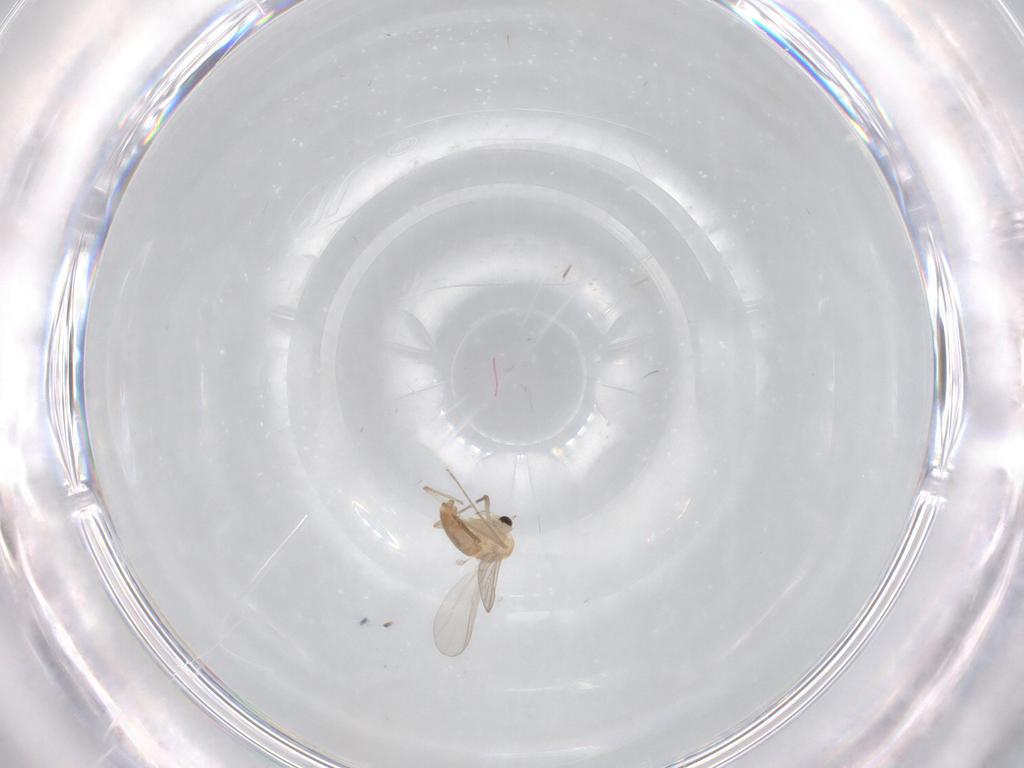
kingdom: Animalia
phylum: Arthropoda
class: Insecta
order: Diptera
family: Chironomidae
